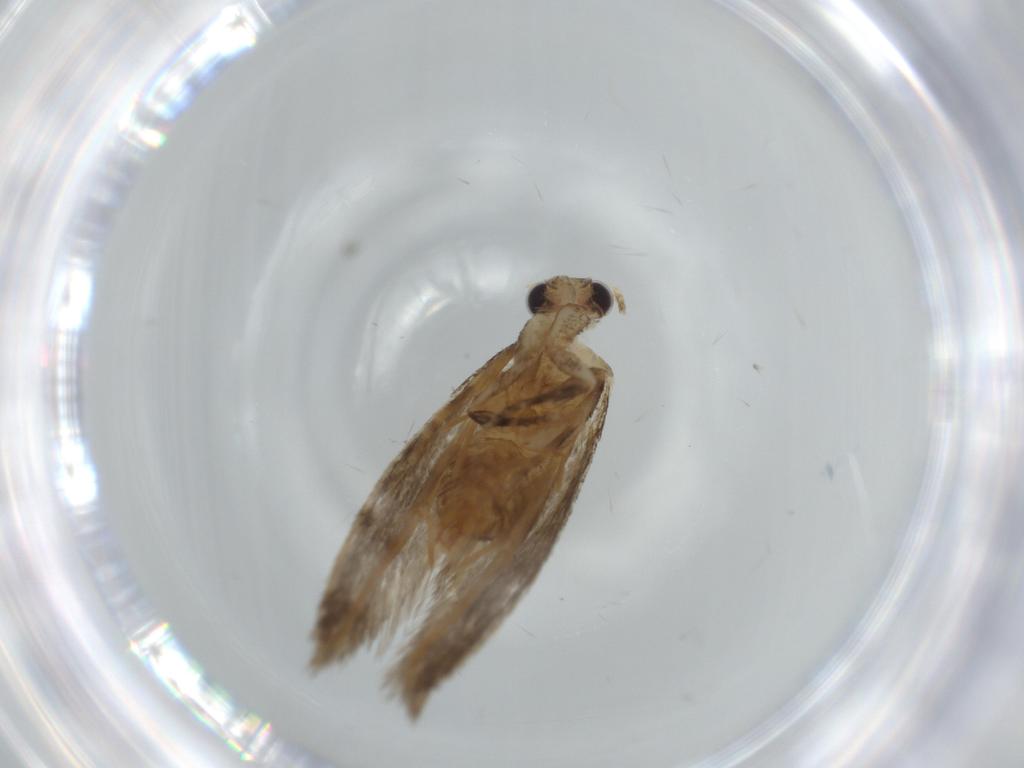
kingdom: Animalia
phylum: Arthropoda
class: Insecta
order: Lepidoptera
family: Tineidae
